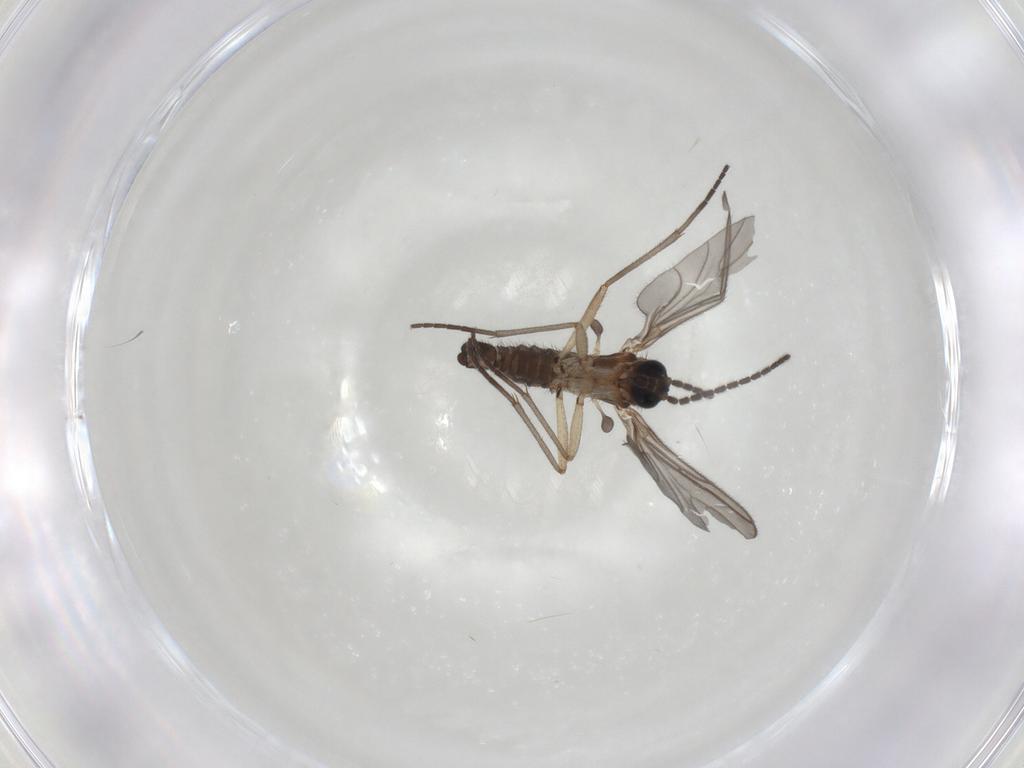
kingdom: Animalia
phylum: Arthropoda
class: Insecta
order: Diptera
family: Sciaridae
